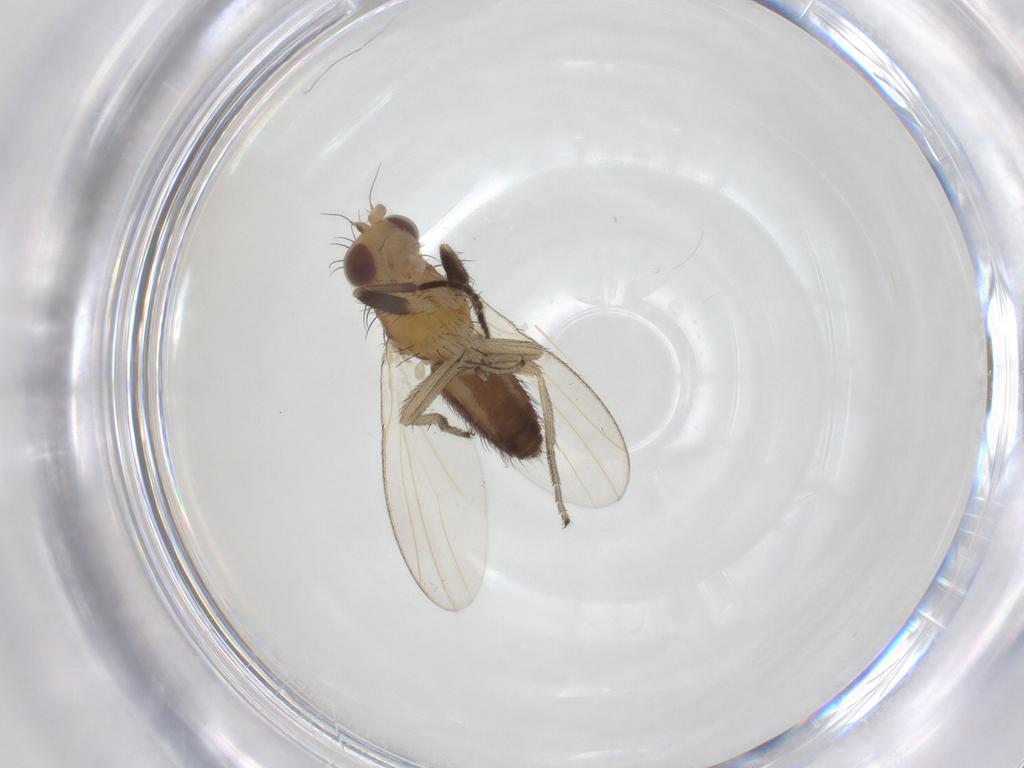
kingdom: Animalia
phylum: Arthropoda
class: Insecta
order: Diptera
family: Heleomyzidae
